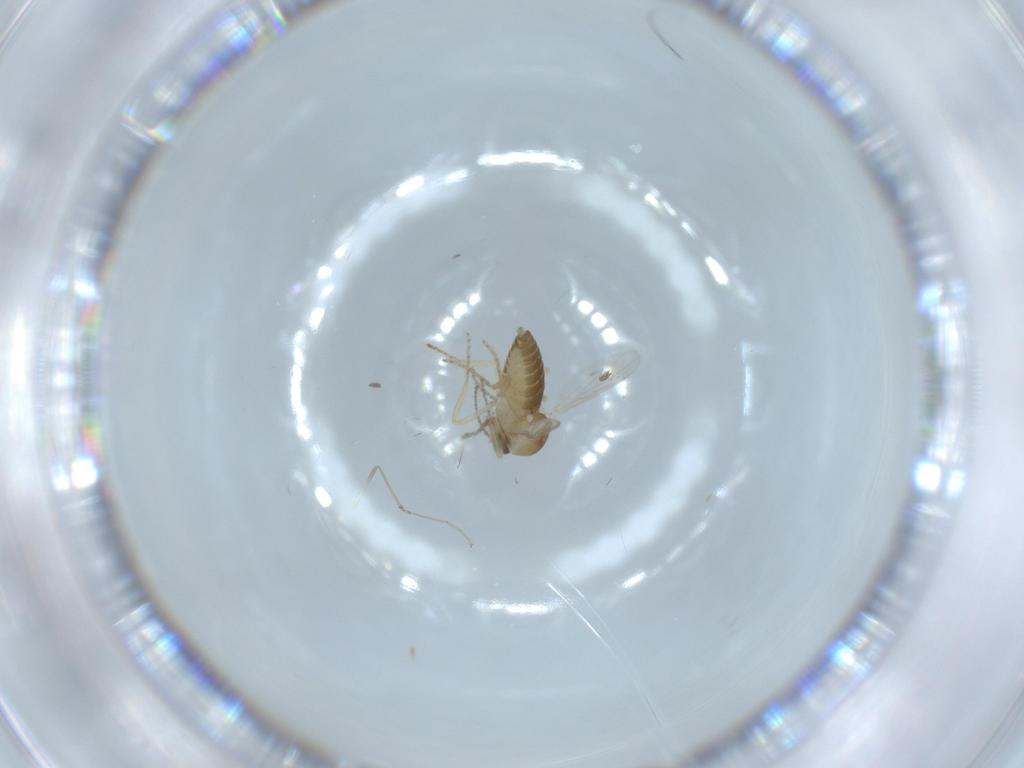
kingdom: Animalia
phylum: Arthropoda
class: Insecta
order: Diptera
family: Ceratopogonidae
